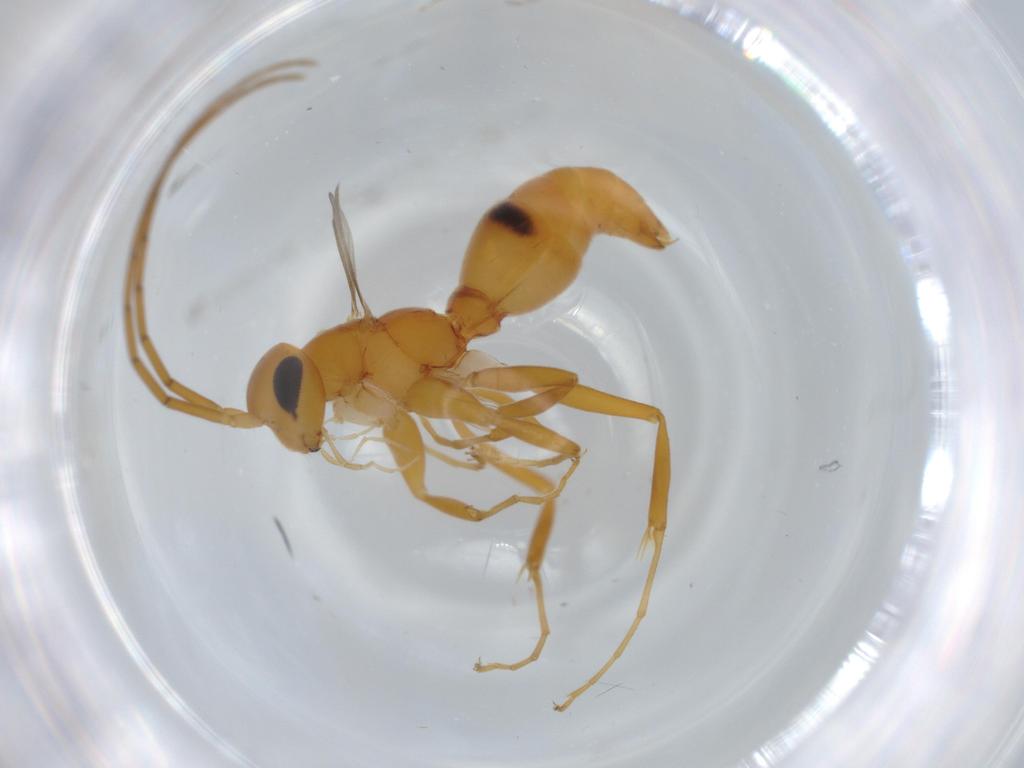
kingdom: Animalia
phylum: Arthropoda
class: Insecta
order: Hymenoptera
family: Rhopalosomatidae
